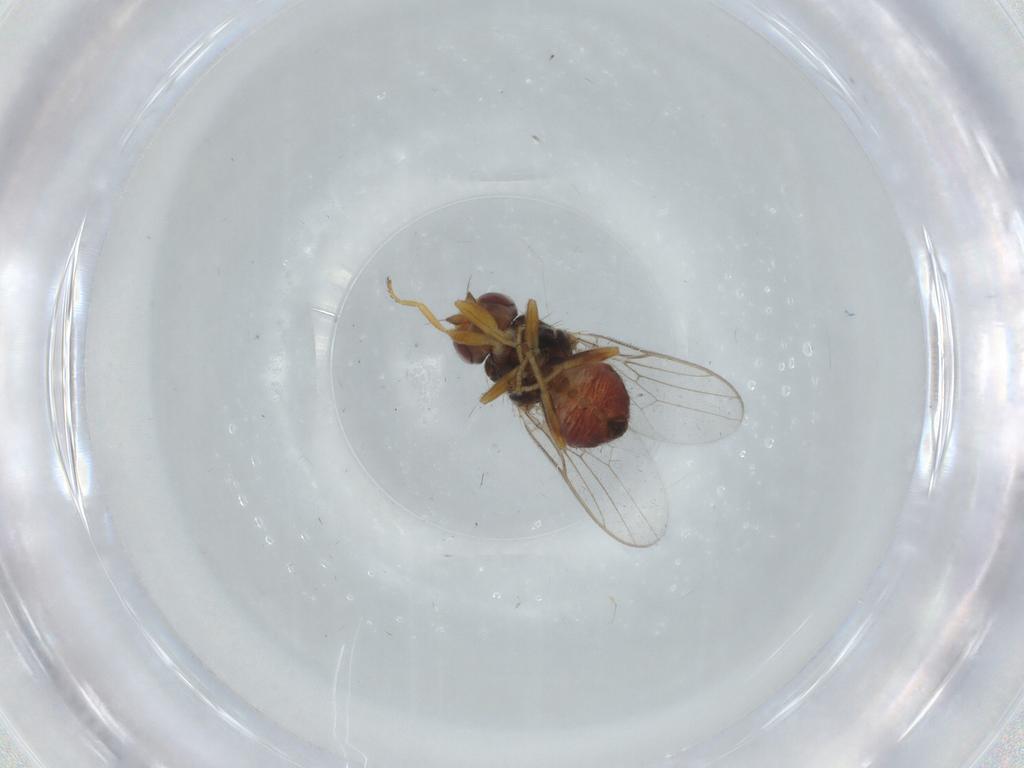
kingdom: Animalia
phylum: Arthropoda
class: Insecta
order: Diptera
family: Chloropidae
